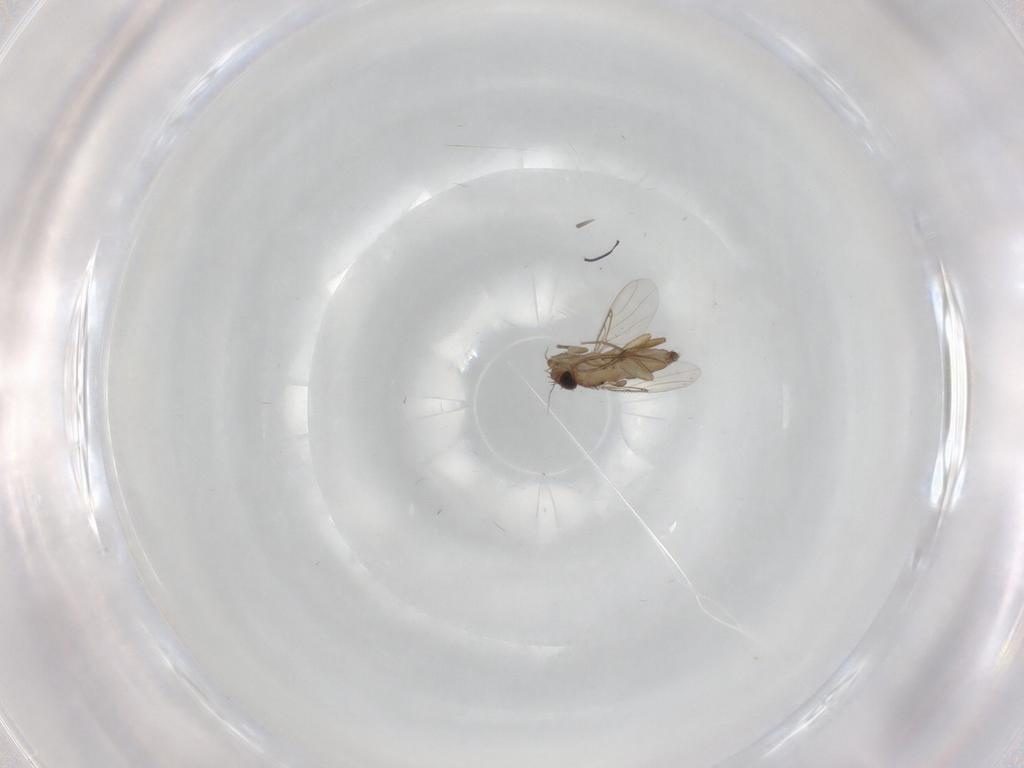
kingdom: Animalia
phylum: Arthropoda
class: Insecta
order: Diptera
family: Phoridae
